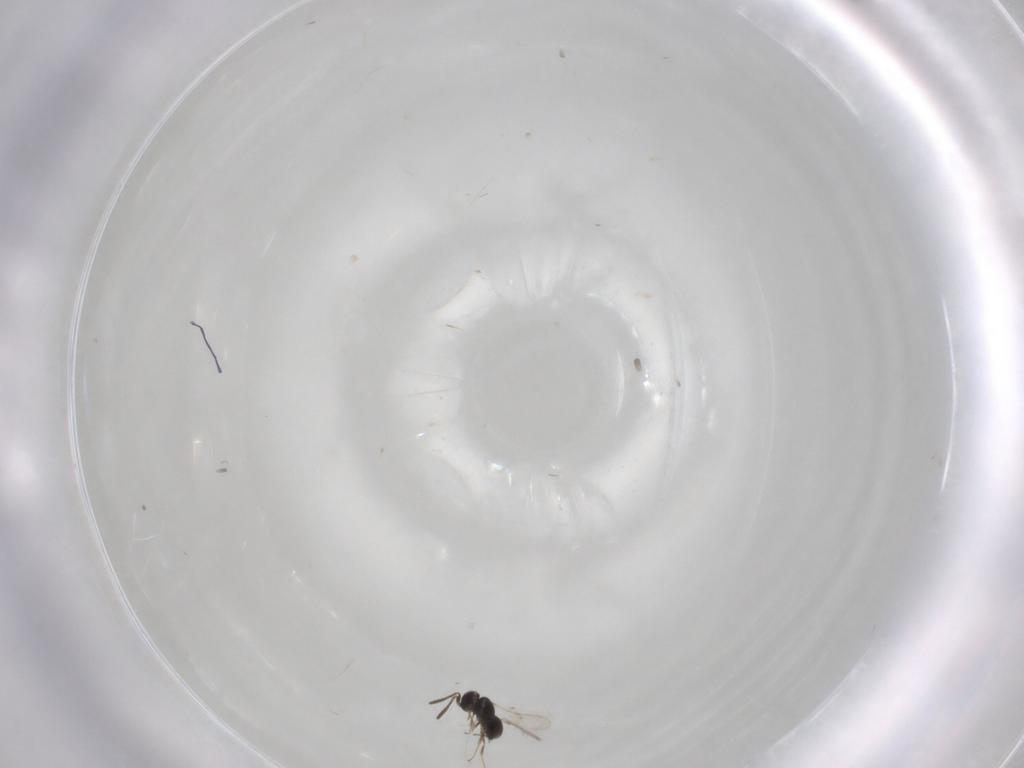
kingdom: Animalia
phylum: Arthropoda
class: Insecta
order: Hymenoptera
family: Scelionidae
